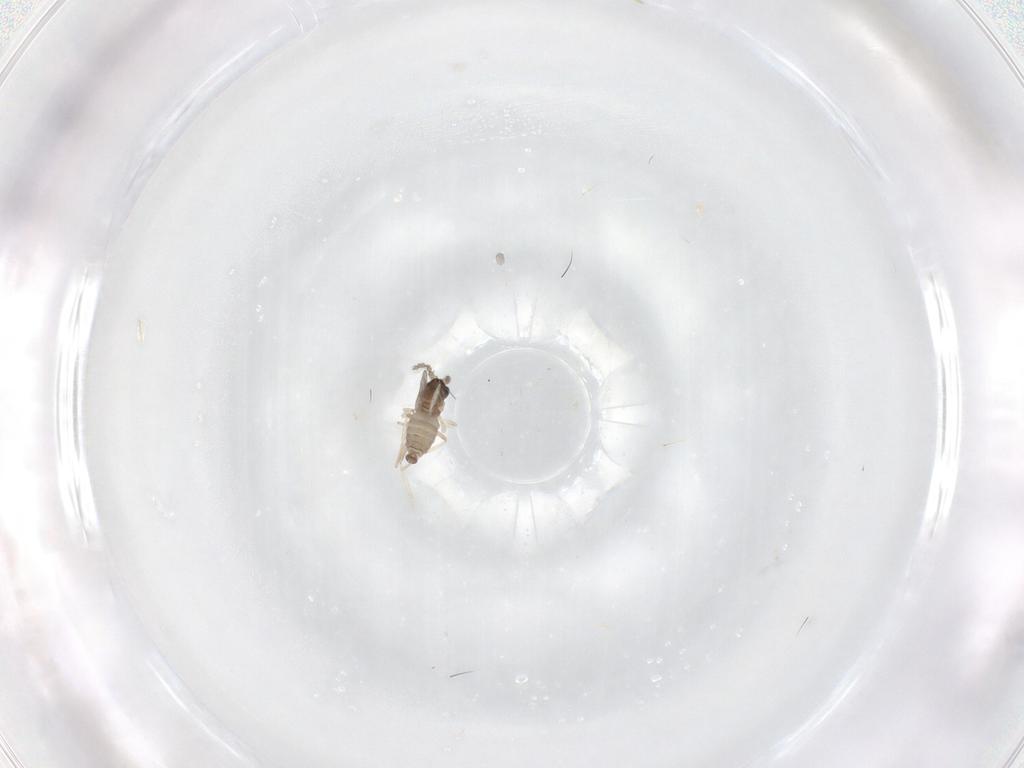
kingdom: Animalia
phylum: Arthropoda
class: Insecta
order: Diptera
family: Cecidomyiidae
